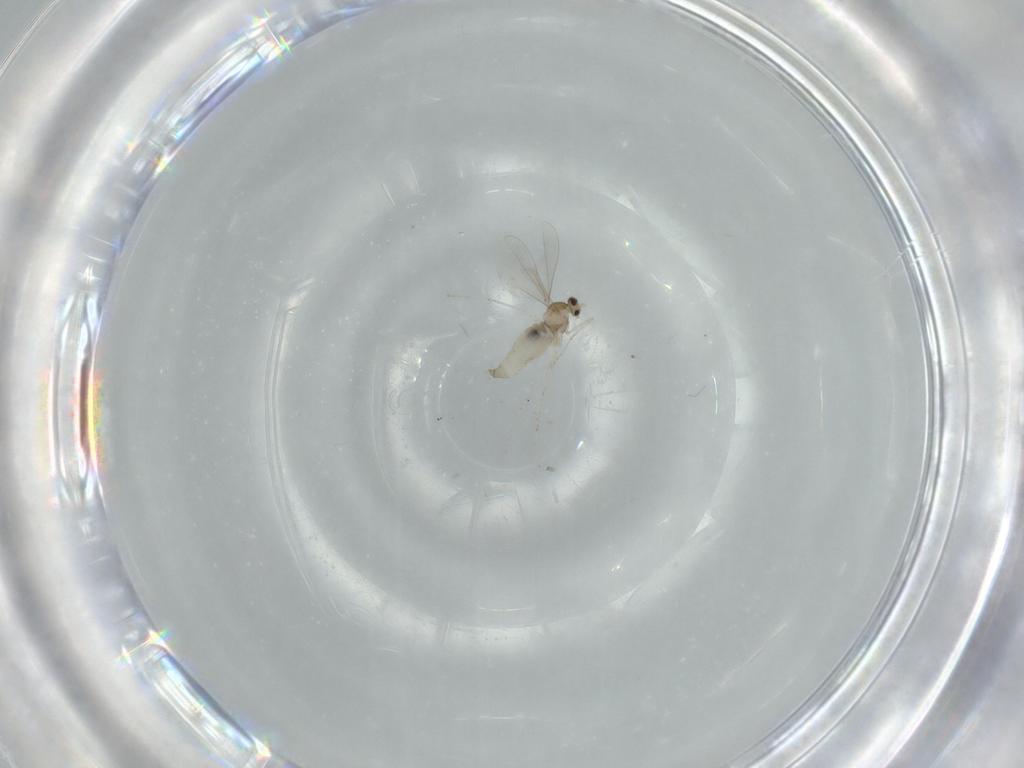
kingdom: Animalia
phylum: Arthropoda
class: Insecta
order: Diptera
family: Cecidomyiidae
